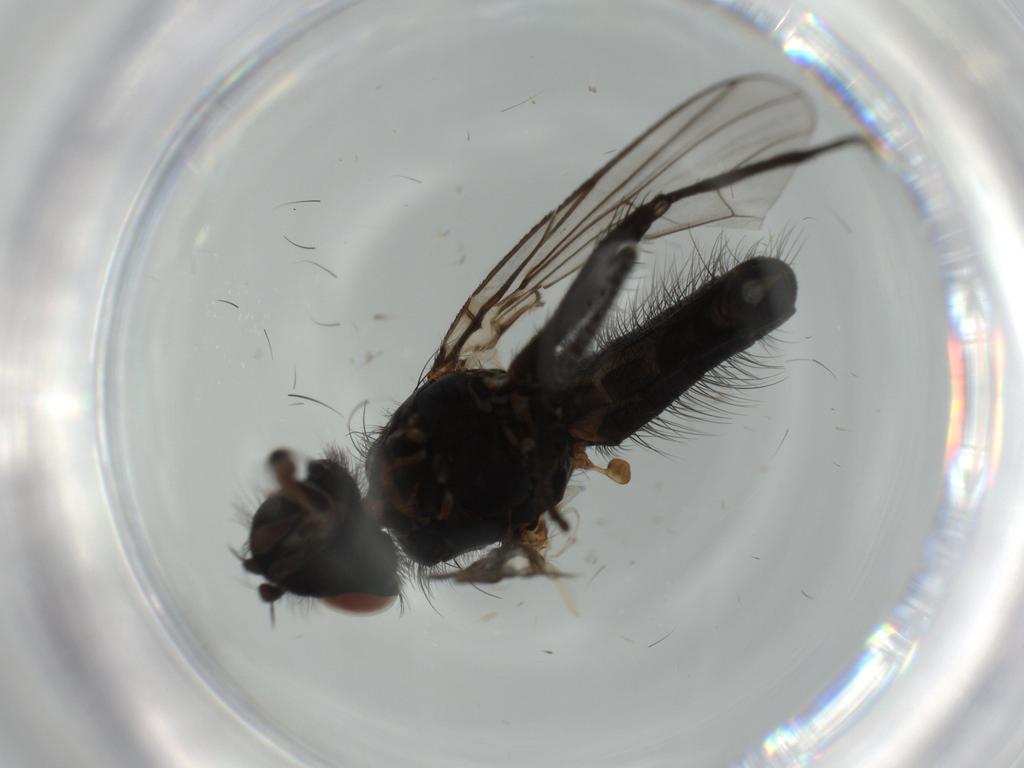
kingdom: Animalia
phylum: Arthropoda
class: Insecta
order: Diptera
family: Anthomyiidae
